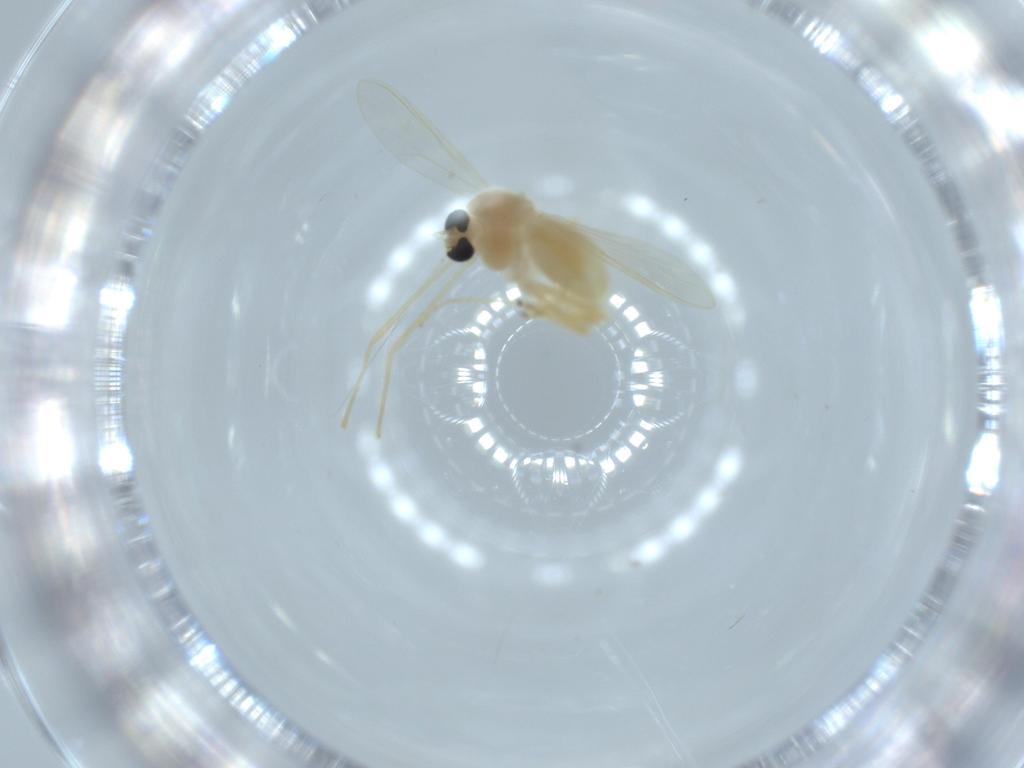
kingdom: Animalia
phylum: Arthropoda
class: Insecta
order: Diptera
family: Chironomidae
